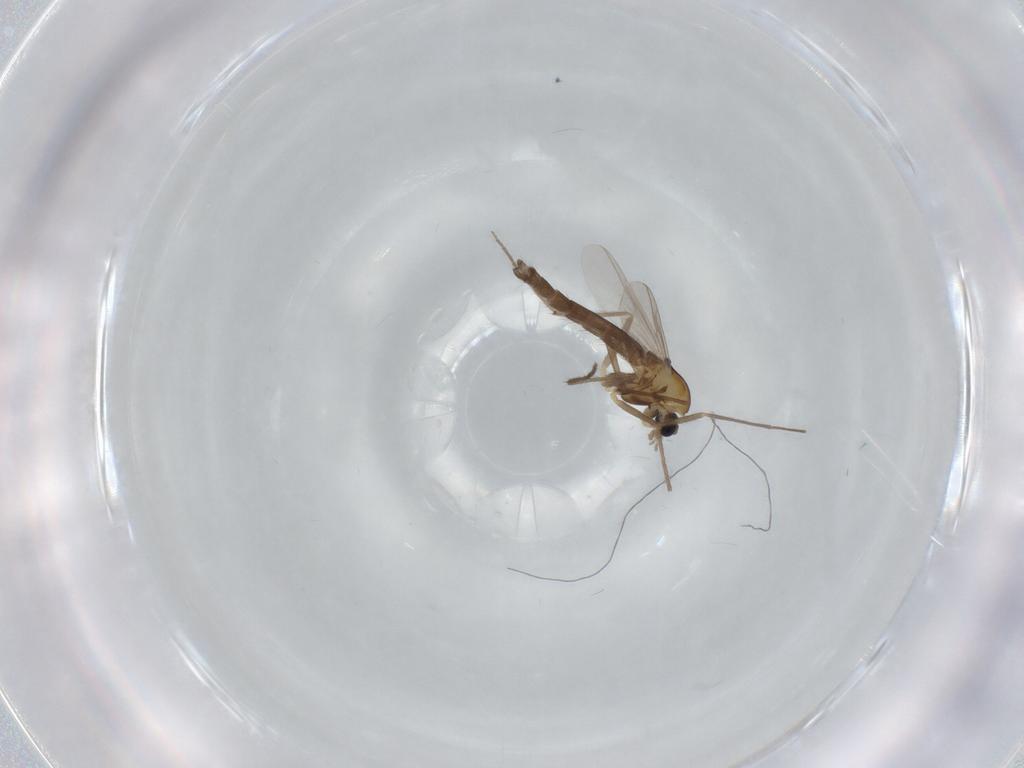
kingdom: Animalia
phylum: Arthropoda
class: Insecta
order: Diptera
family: Chironomidae
